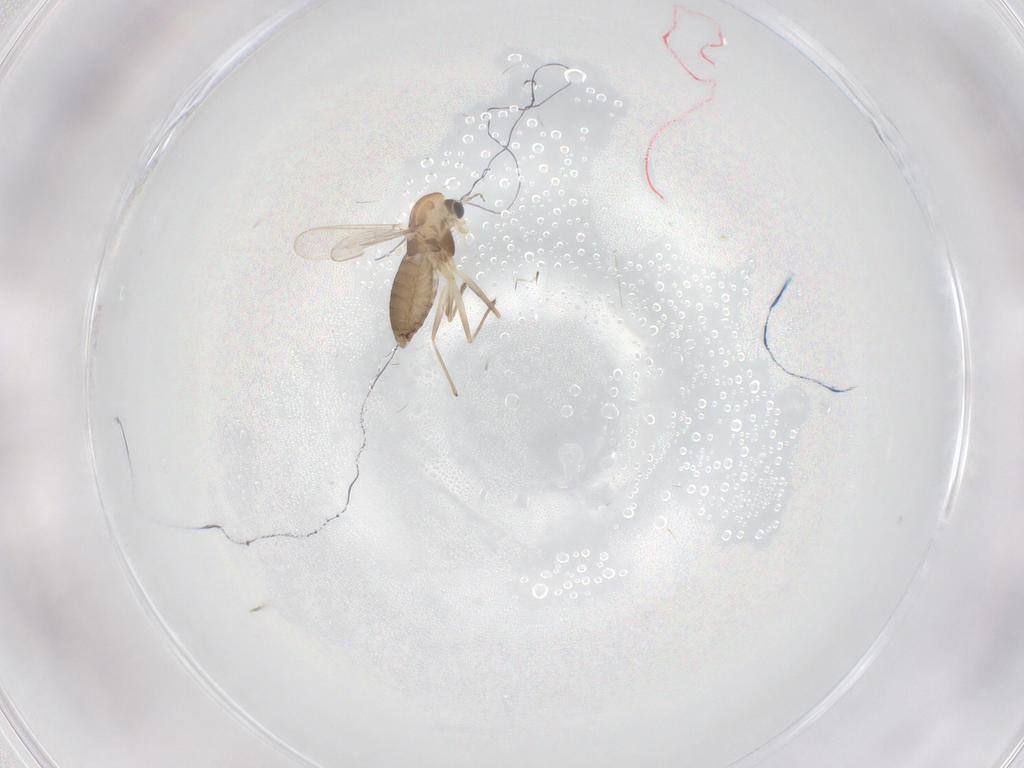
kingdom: Animalia
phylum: Arthropoda
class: Insecta
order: Diptera
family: Chironomidae
